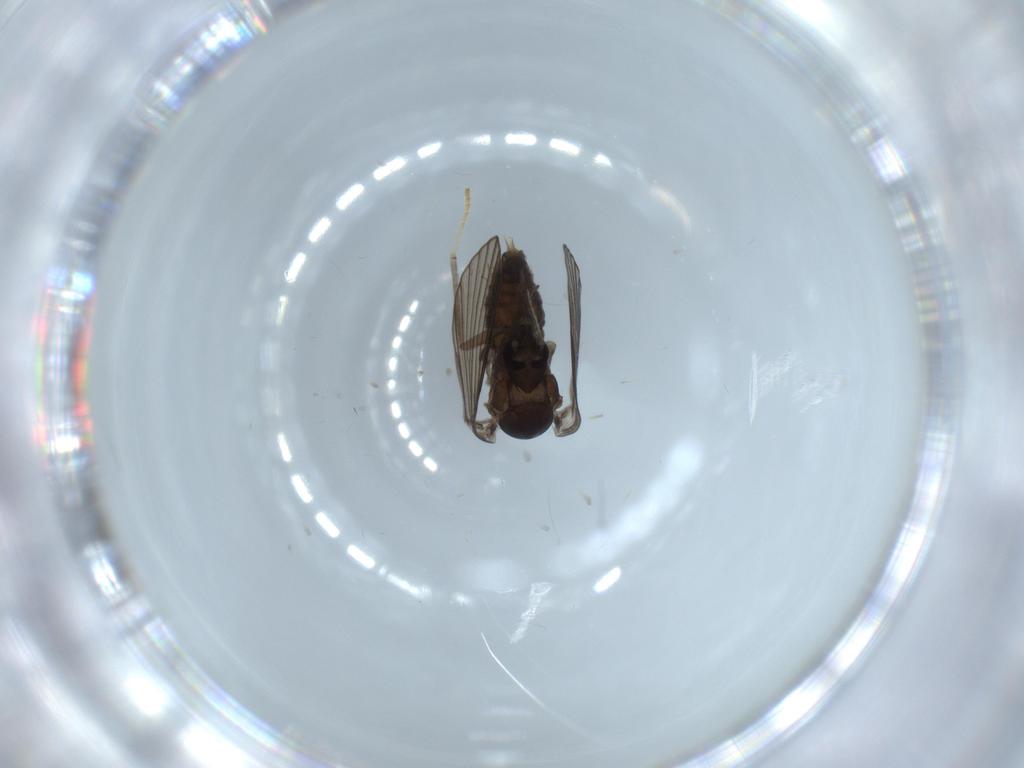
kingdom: Animalia
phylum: Arthropoda
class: Insecta
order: Diptera
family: Psychodidae
